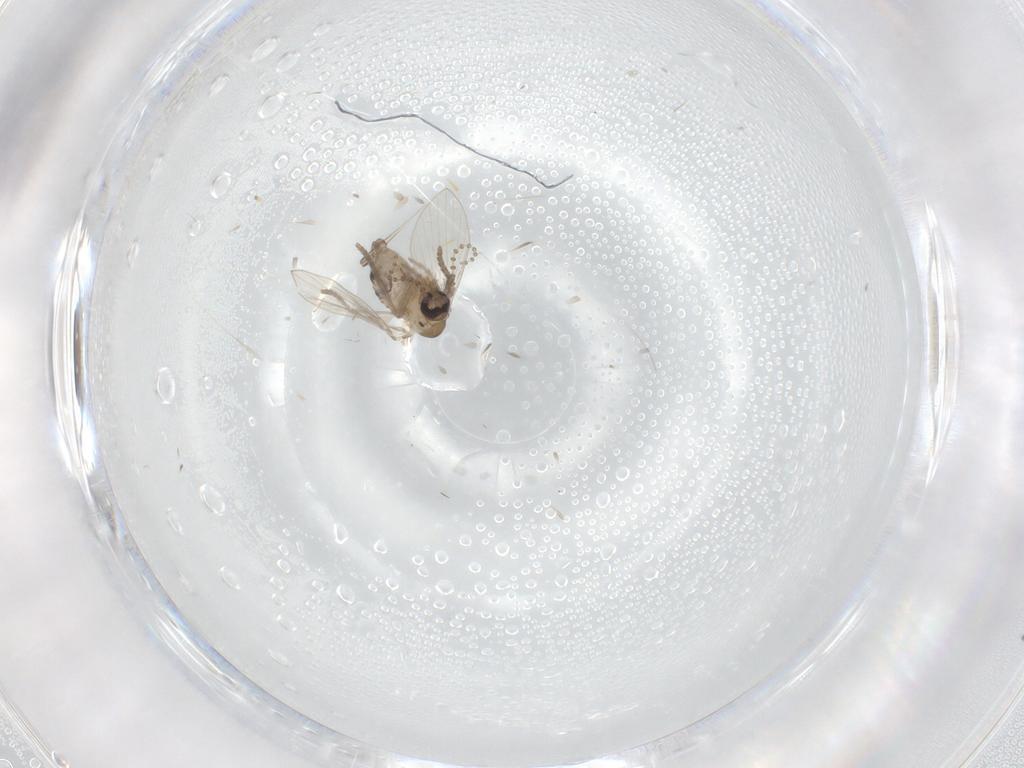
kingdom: Animalia
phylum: Arthropoda
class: Insecta
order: Diptera
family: Psychodidae
